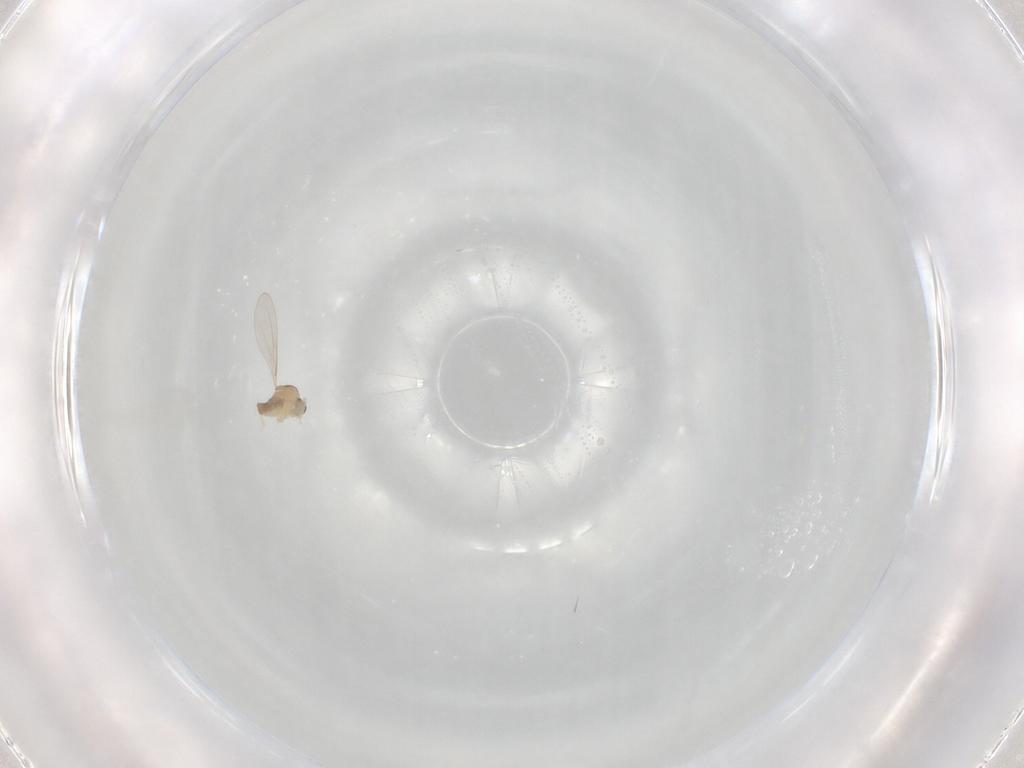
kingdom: Animalia
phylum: Arthropoda
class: Insecta
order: Diptera
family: Cecidomyiidae
